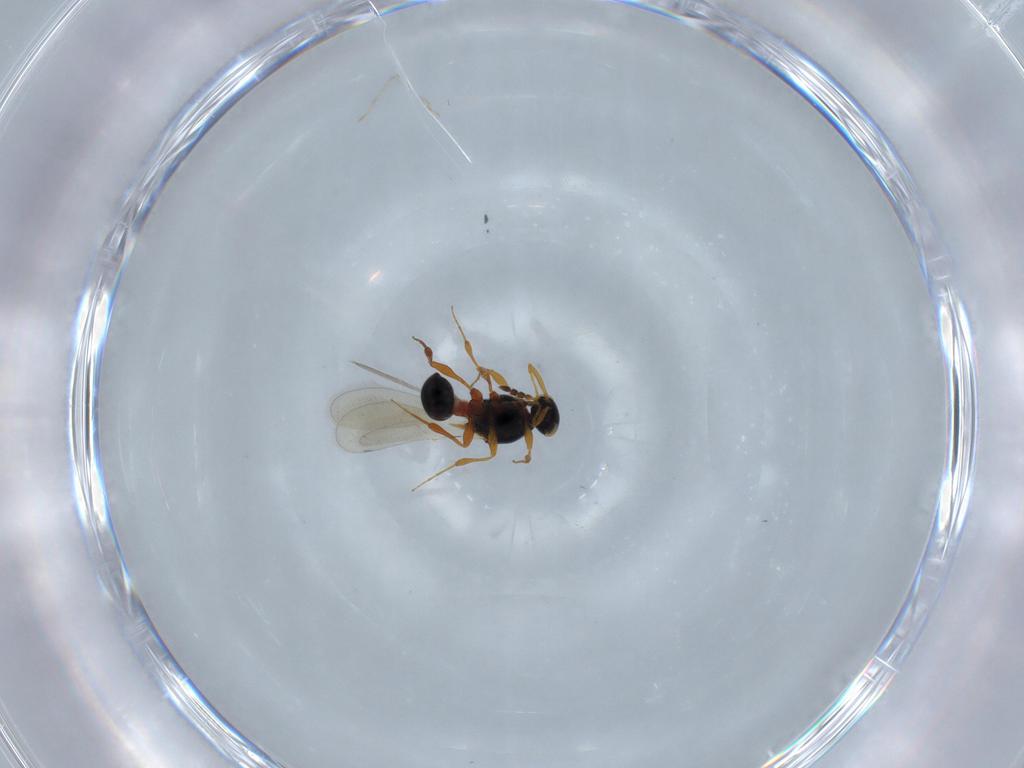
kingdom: Animalia
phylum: Arthropoda
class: Insecta
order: Hymenoptera
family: Platygastridae
